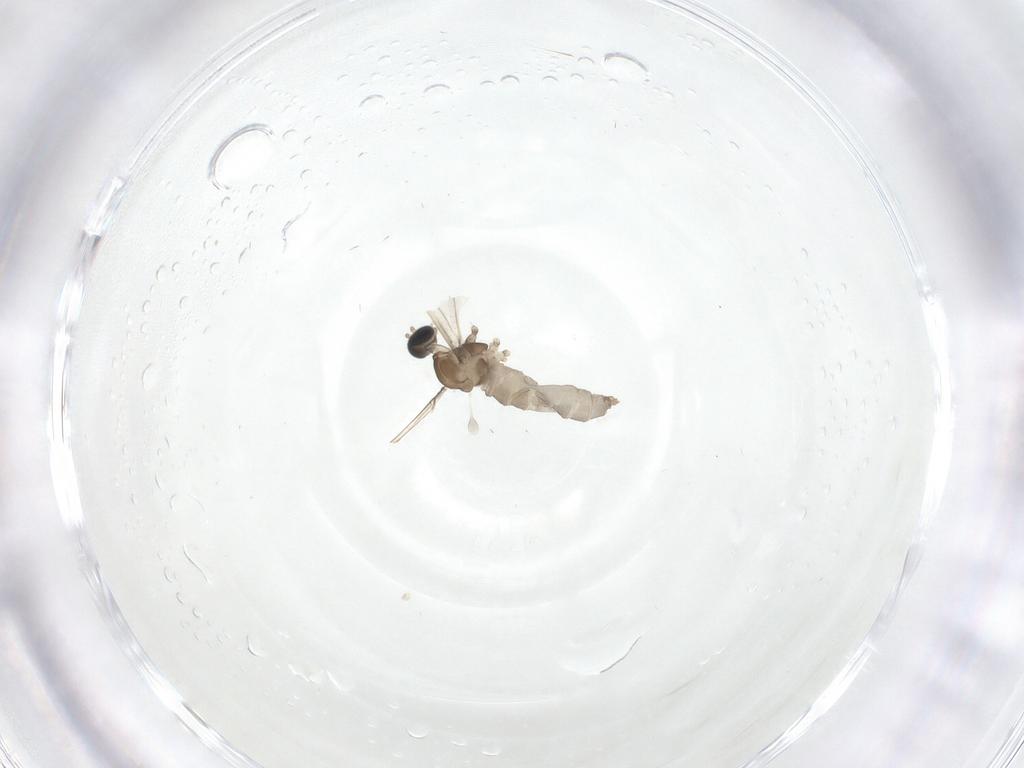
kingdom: Animalia
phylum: Arthropoda
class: Insecta
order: Diptera
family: Cecidomyiidae
